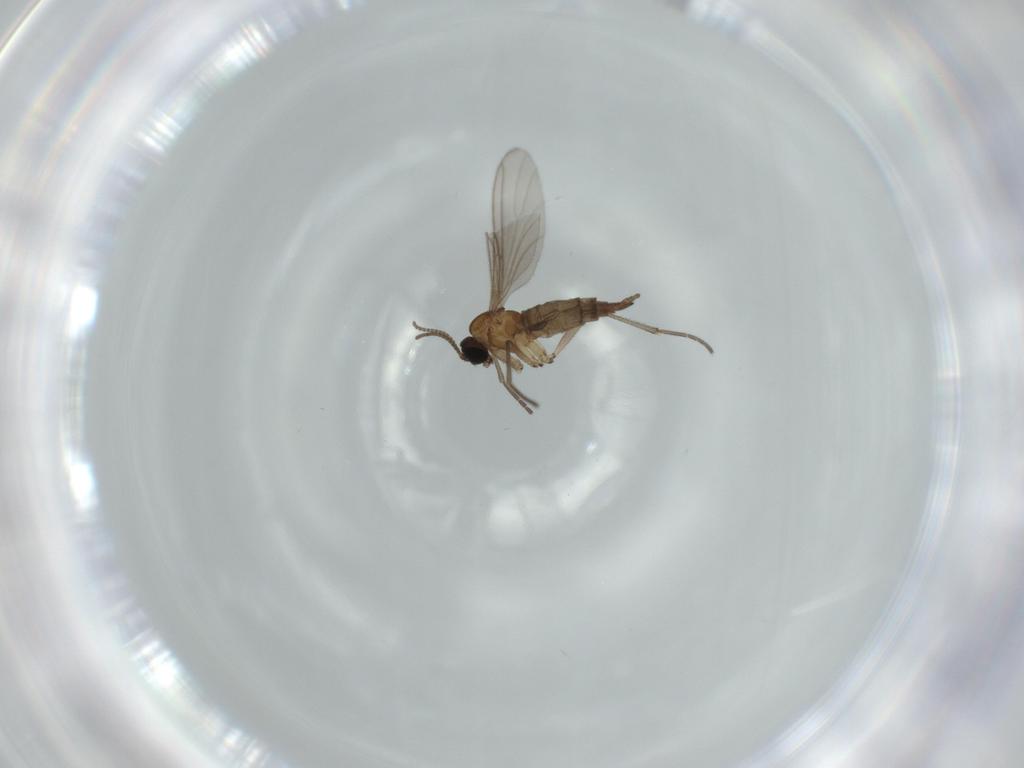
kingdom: Animalia
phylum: Arthropoda
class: Insecta
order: Diptera
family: Sciaridae
